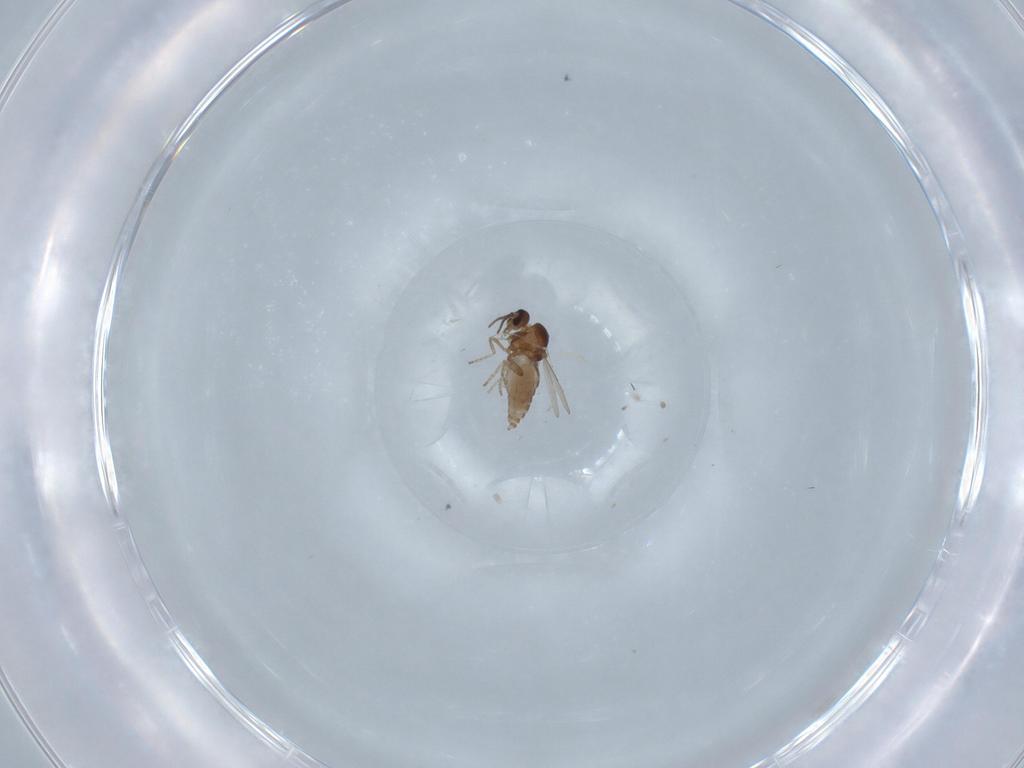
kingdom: Animalia
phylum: Arthropoda
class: Insecta
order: Diptera
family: Ceratopogonidae
